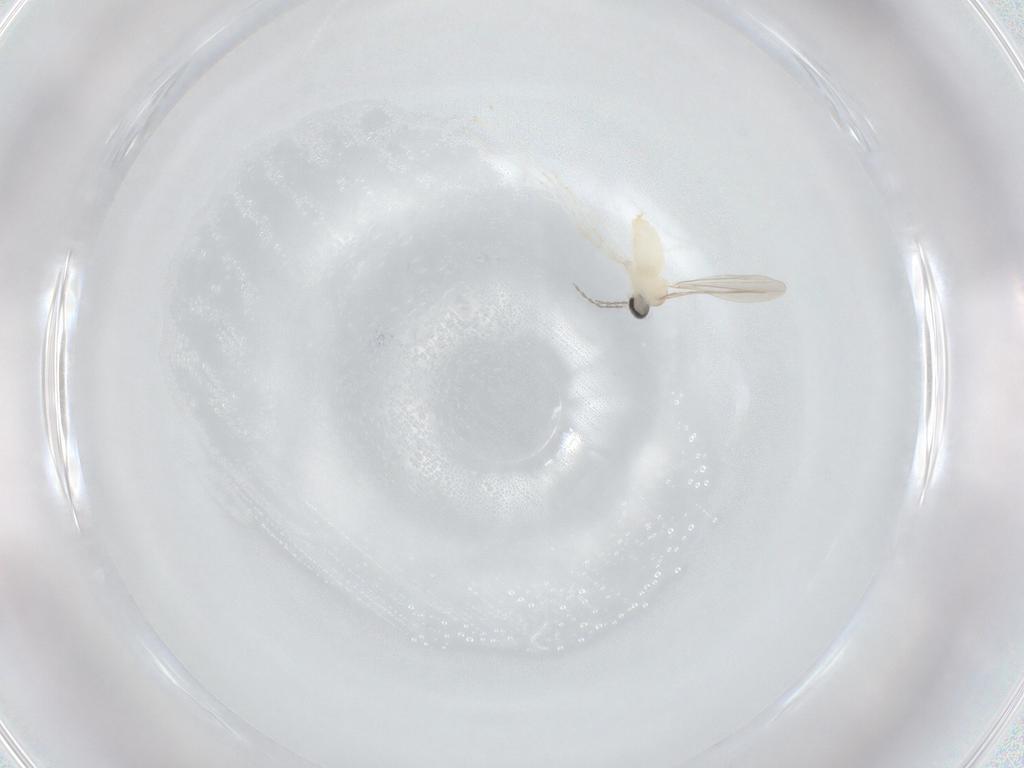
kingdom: Animalia
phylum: Arthropoda
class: Insecta
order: Diptera
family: Cecidomyiidae
